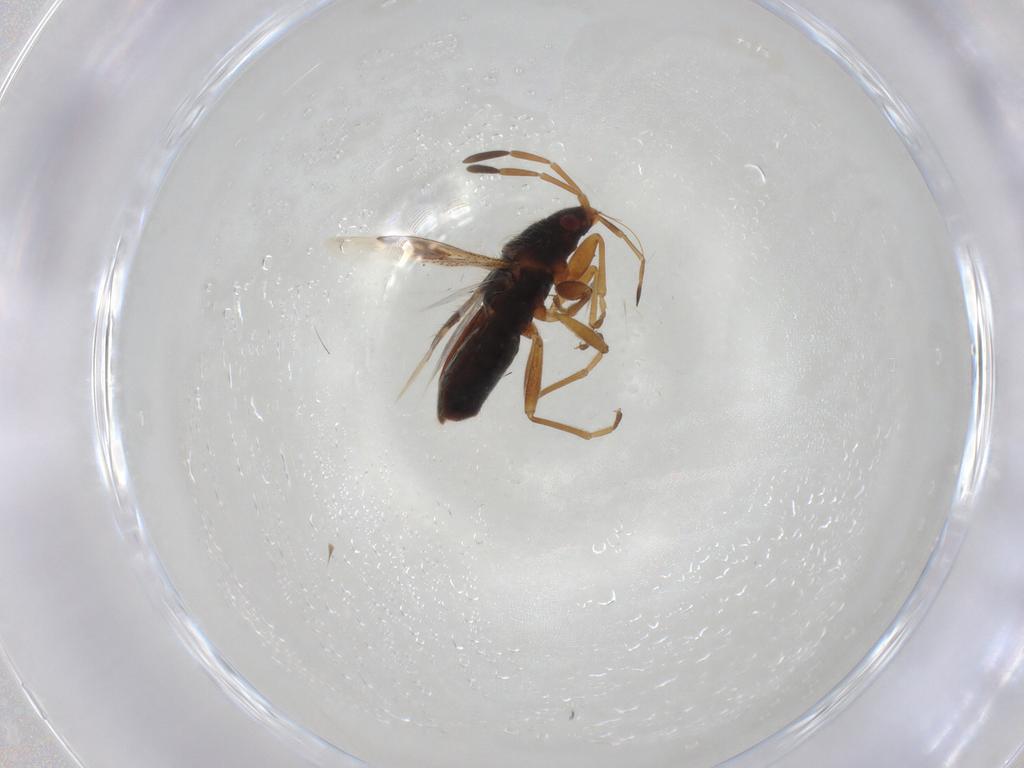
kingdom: Animalia
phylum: Arthropoda
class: Insecta
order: Hemiptera
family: Rhyparochromidae
